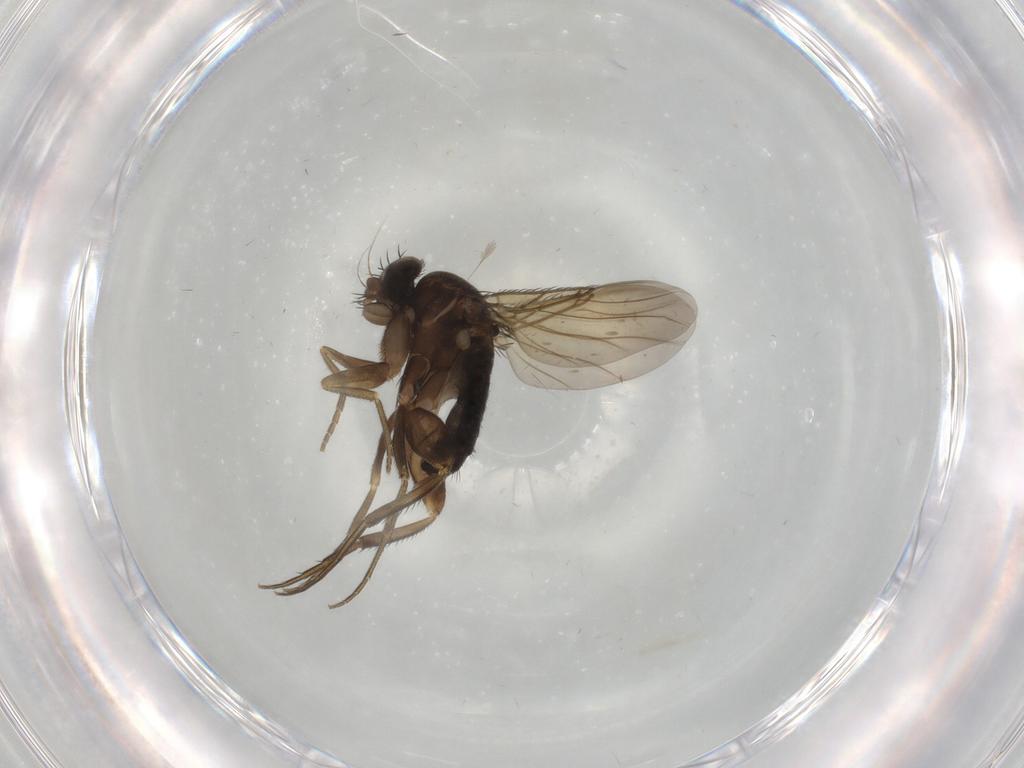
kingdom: Animalia
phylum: Arthropoda
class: Insecta
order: Diptera
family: Phoridae
